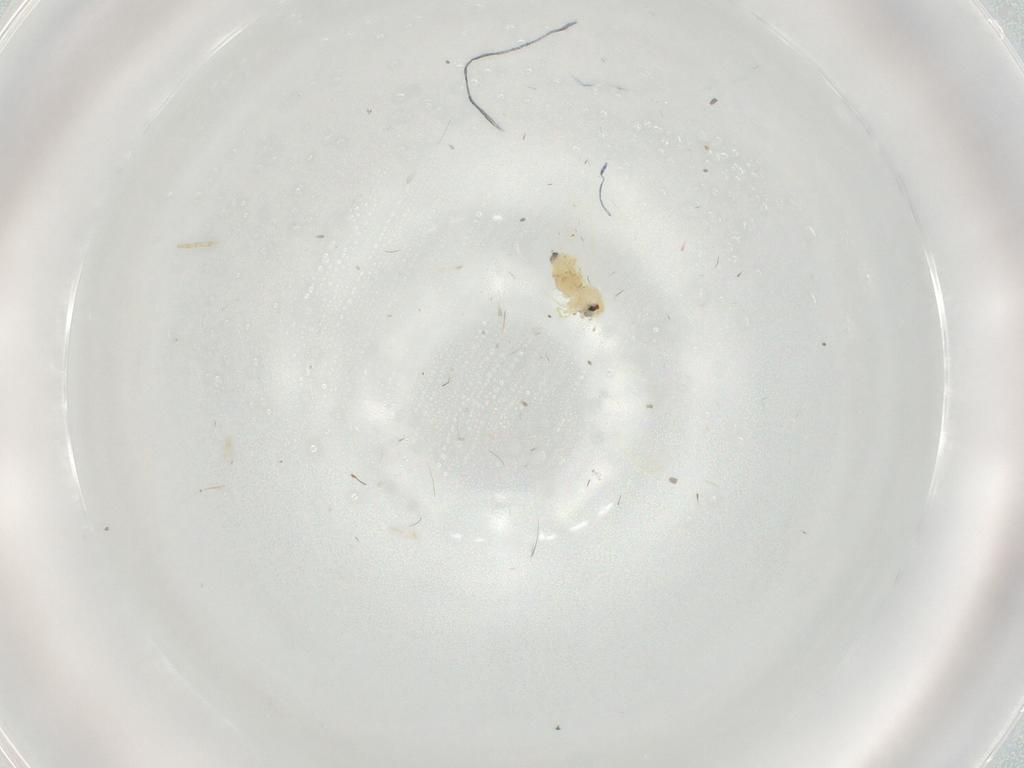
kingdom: Animalia
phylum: Arthropoda
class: Insecta
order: Hemiptera
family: Aleyrodidae
